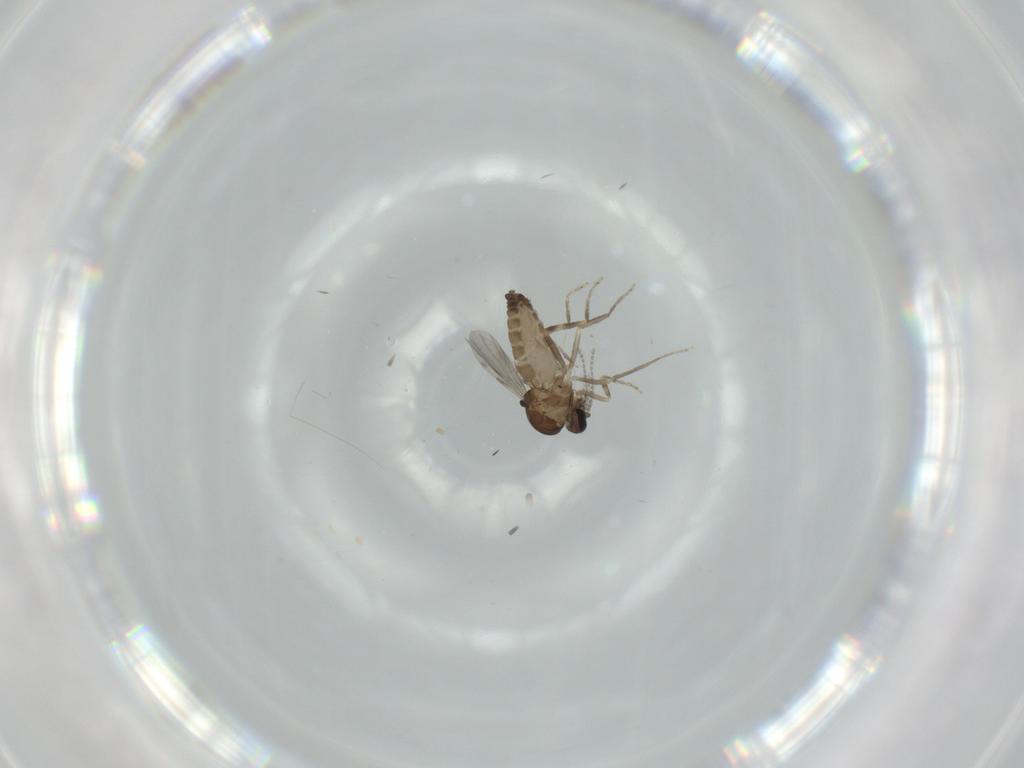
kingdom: Animalia
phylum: Arthropoda
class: Insecta
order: Diptera
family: Ceratopogonidae
